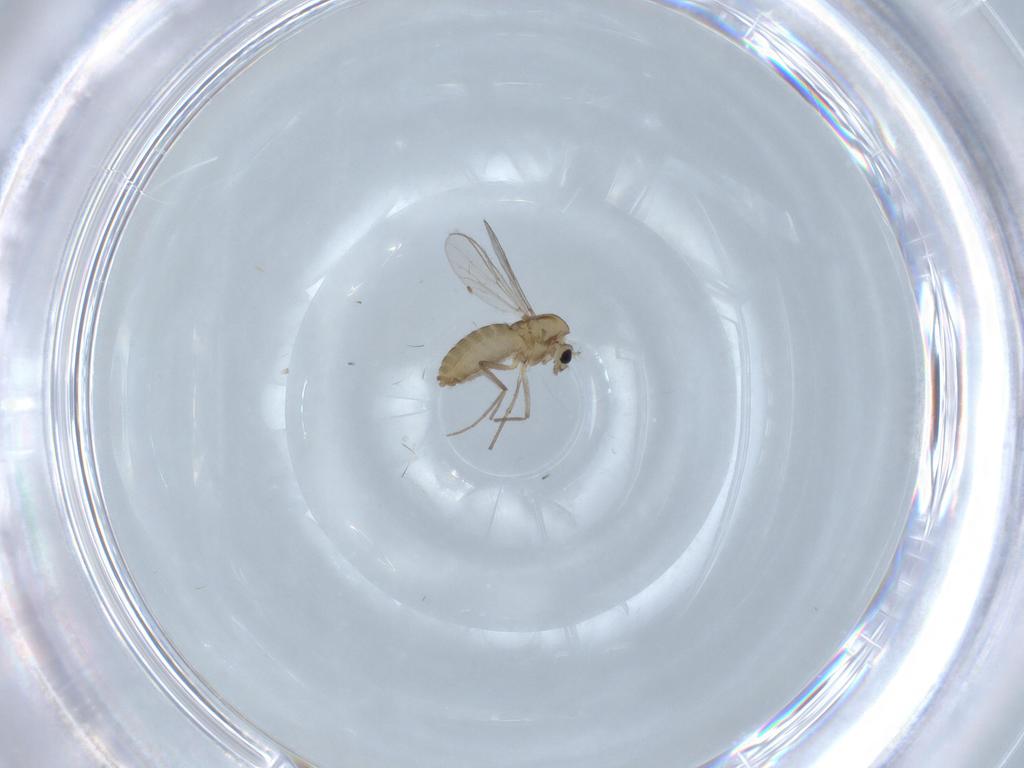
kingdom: Animalia
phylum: Arthropoda
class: Insecta
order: Diptera
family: Chironomidae
